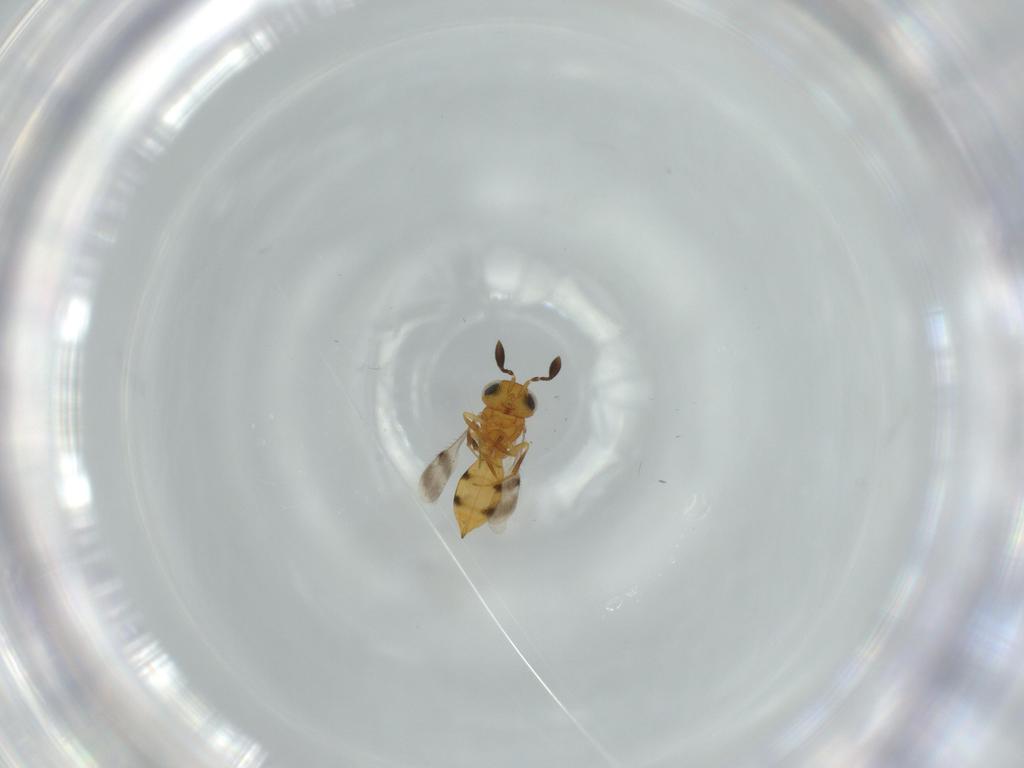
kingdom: Animalia
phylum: Arthropoda
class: Insecta
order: Hymenoptera
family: Scelionidae
